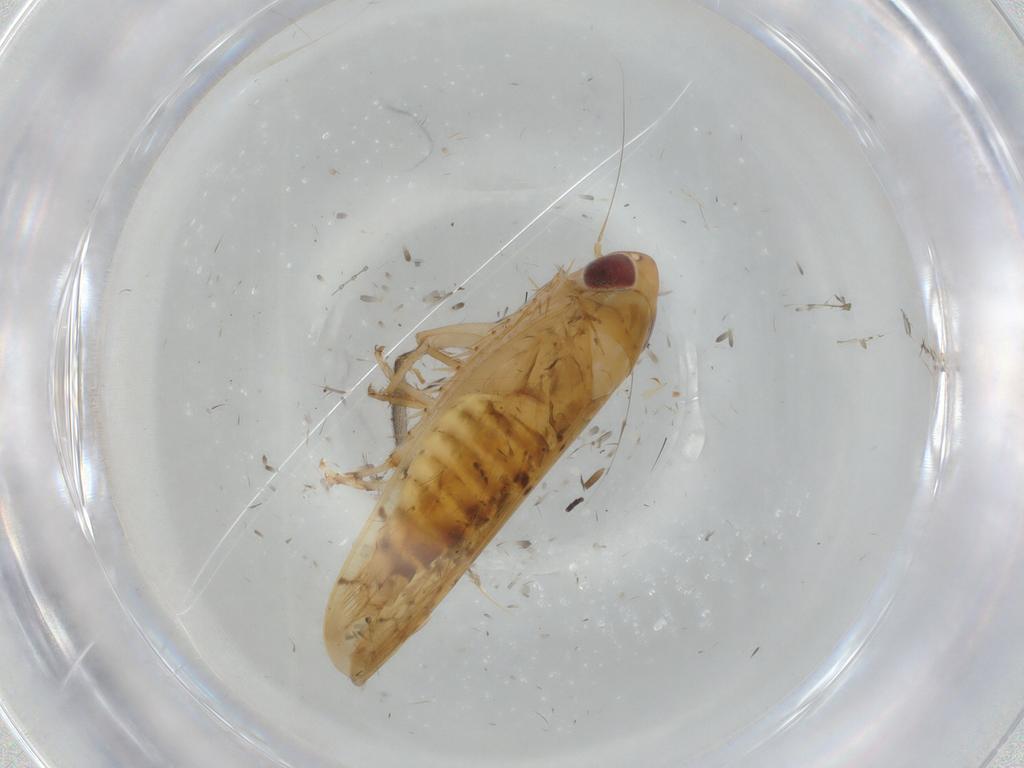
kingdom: Animalia
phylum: Arthropoda
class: Insecta
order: Hemiptera
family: Cicadellidae
